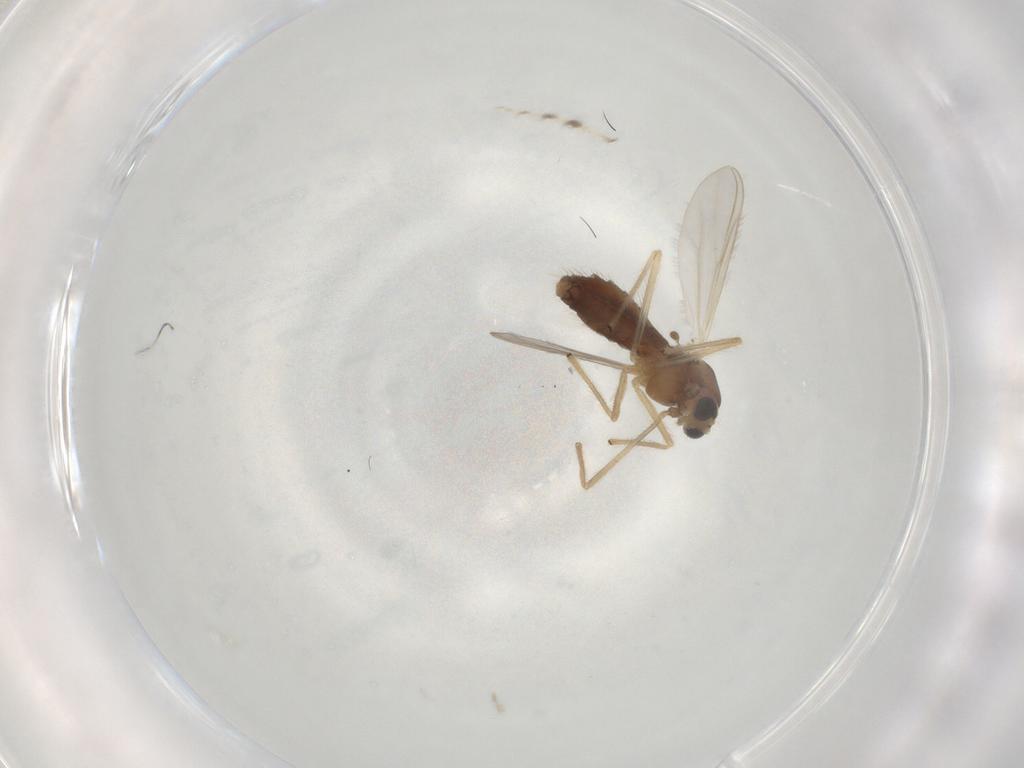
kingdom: Animalia
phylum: Arthropoda
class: Insecta
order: Diptera
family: Chironomidae
